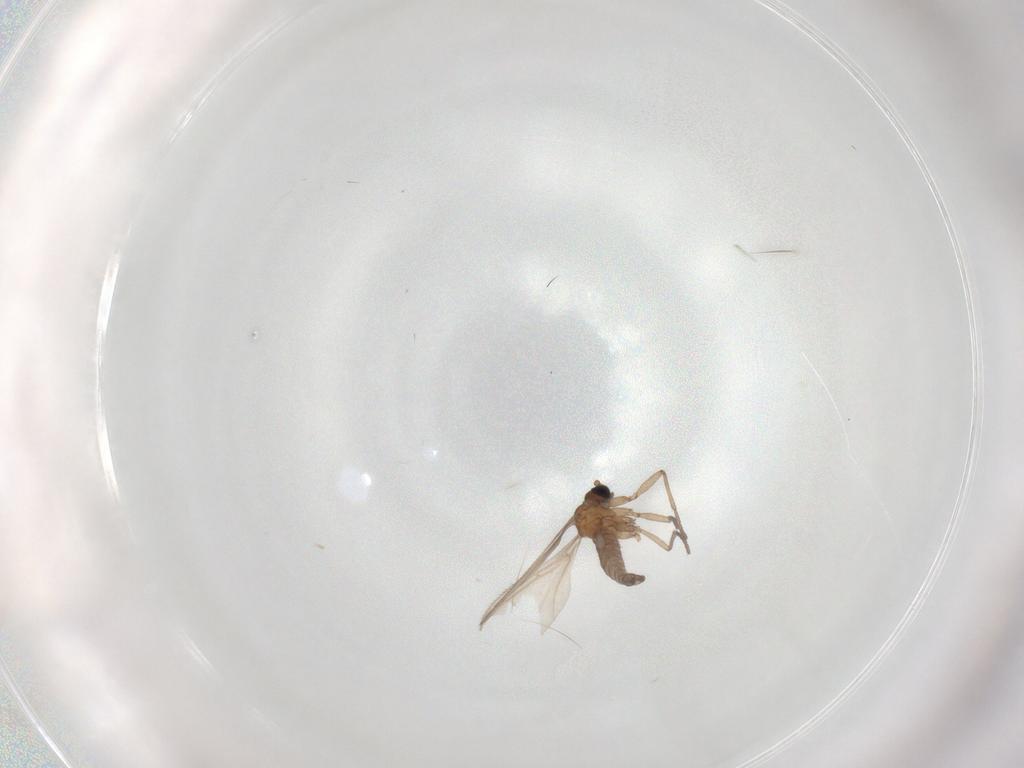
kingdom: Animalia
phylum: Arthropoda
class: Insecta
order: Diptera
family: Sciaridae
